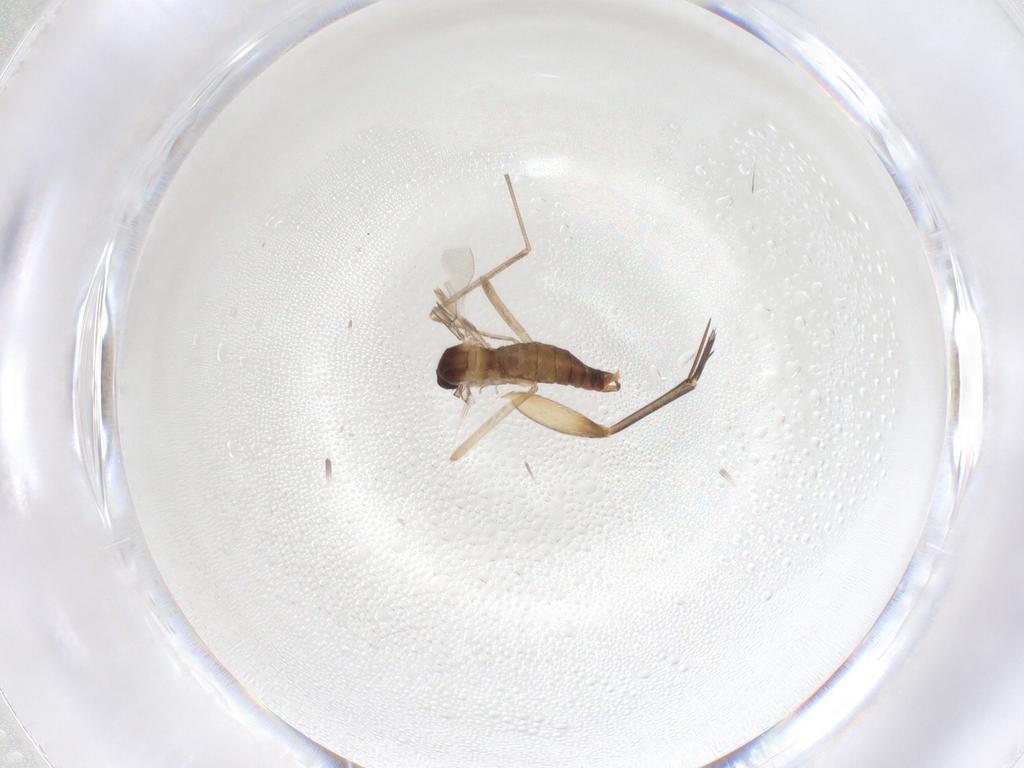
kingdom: Animalia
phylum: Arthropoda
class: Insecta
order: Diptera
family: Cecidomyiidae
